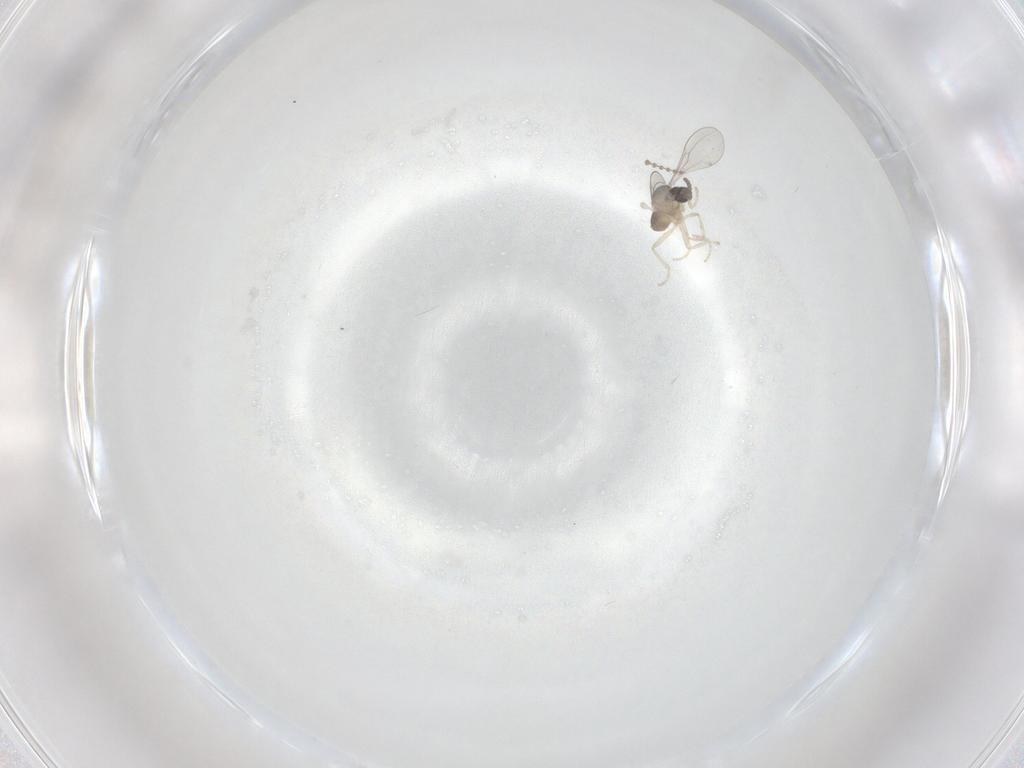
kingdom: Animalia
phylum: Arthropoda
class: Insecta
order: Diptera
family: Cecidomyiidae
